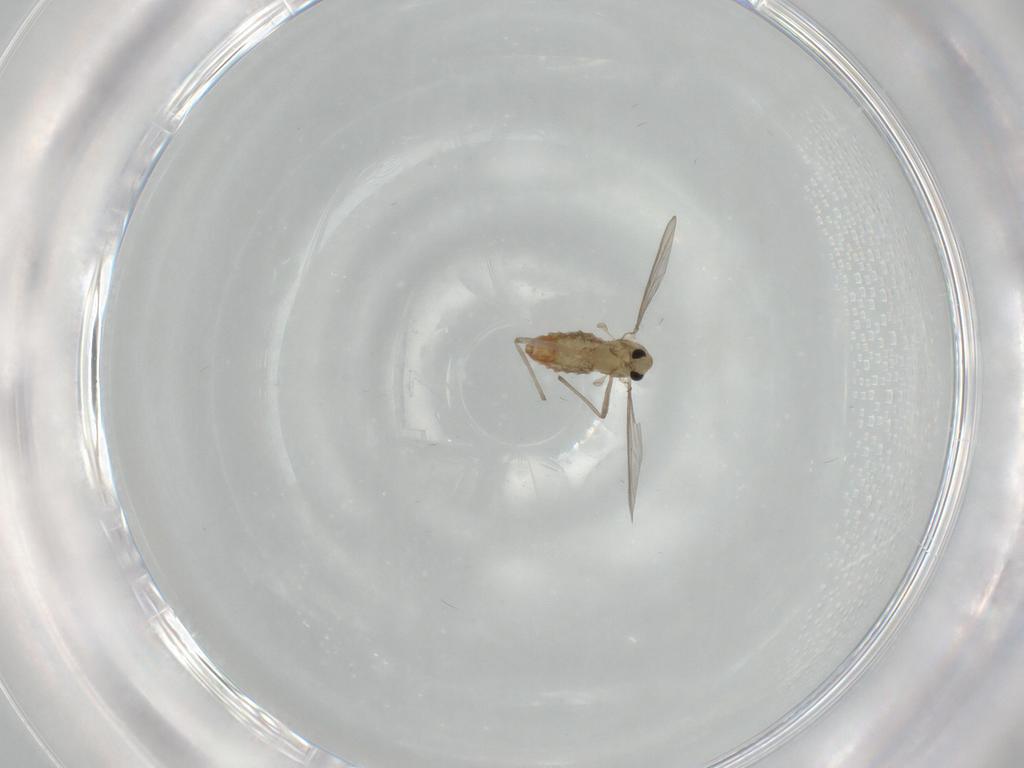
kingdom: Animalia
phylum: Arthropoda
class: Insecta
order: Diptera
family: Chironomidae
